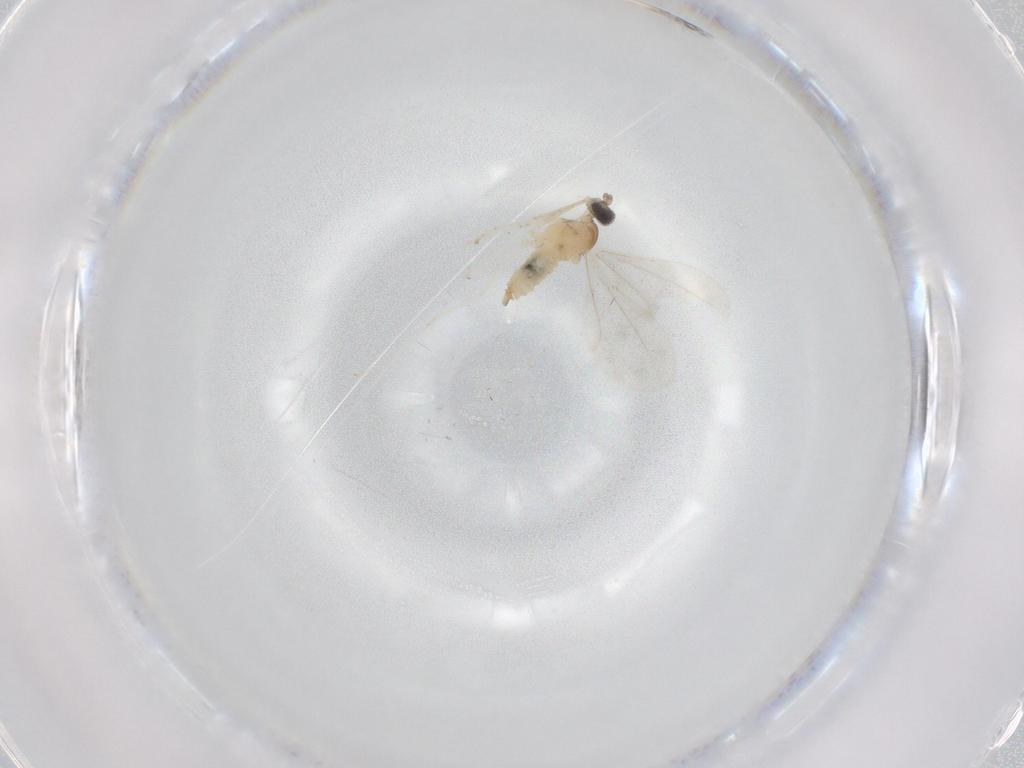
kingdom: Animalia
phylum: Arthropoda
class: Insecta
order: Diptera
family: Cecidomyiidae
